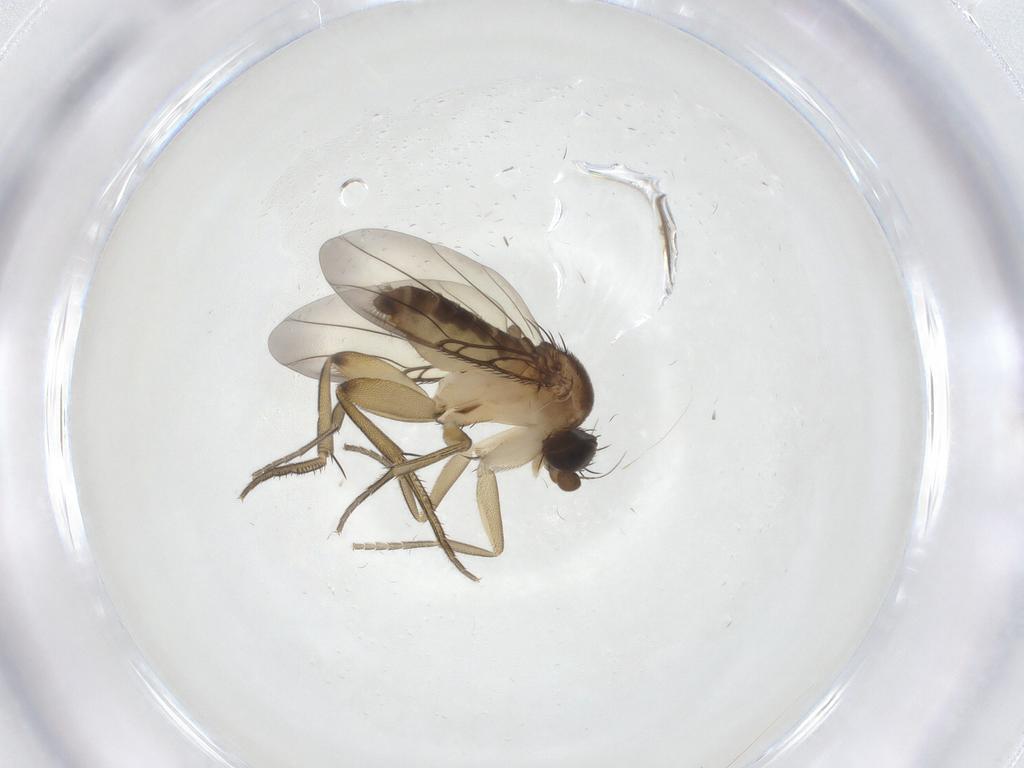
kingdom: Animalia
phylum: Arthropoda
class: Insecta
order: Diptera
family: Phoridae
